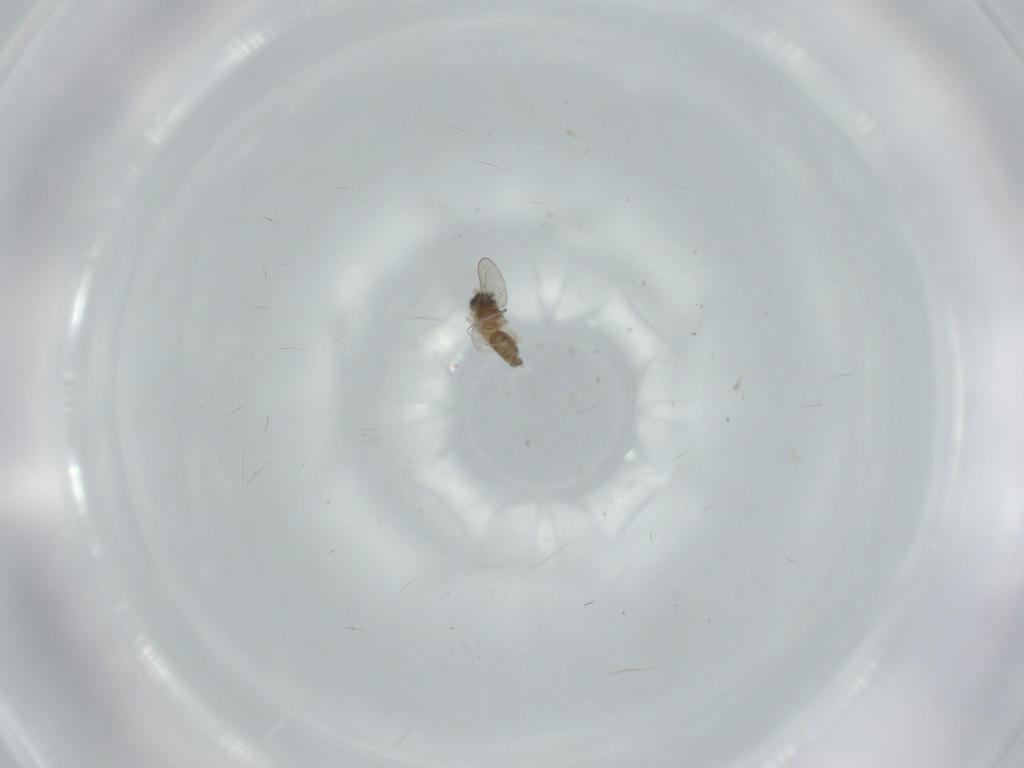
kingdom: Animalia
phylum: Arthropoda
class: Insecta
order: Diptera
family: Cecidomyiidae
